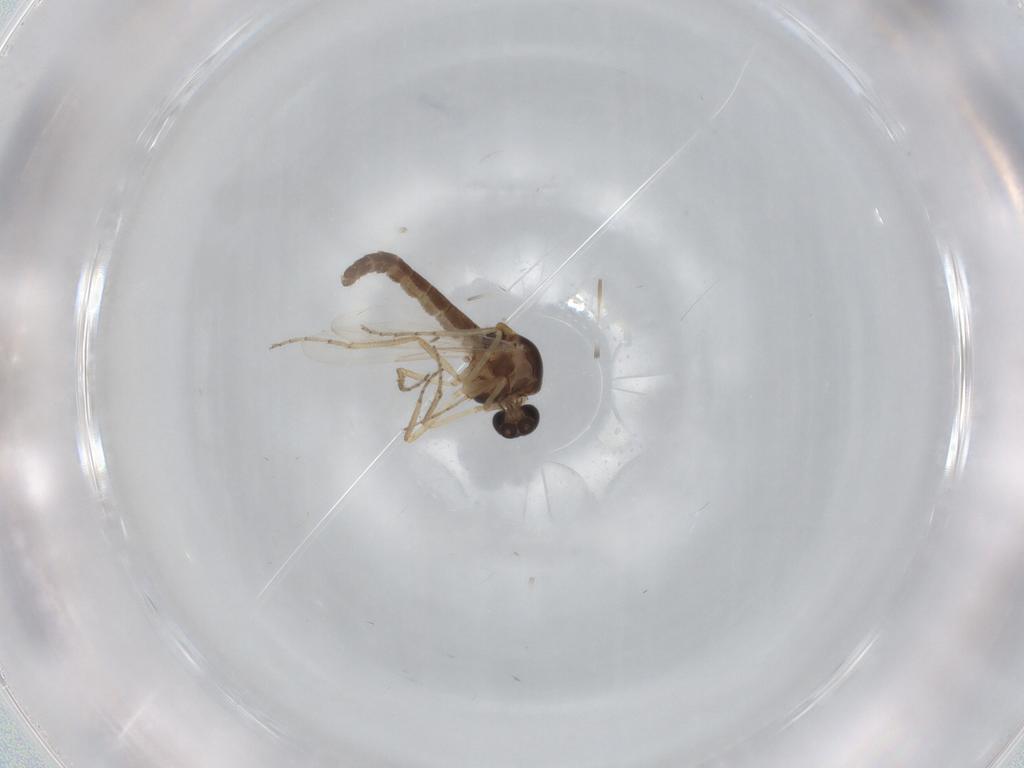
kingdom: Animalia
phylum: Arthropoda
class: Insecta
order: Diptera
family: Ceratopogonidae
